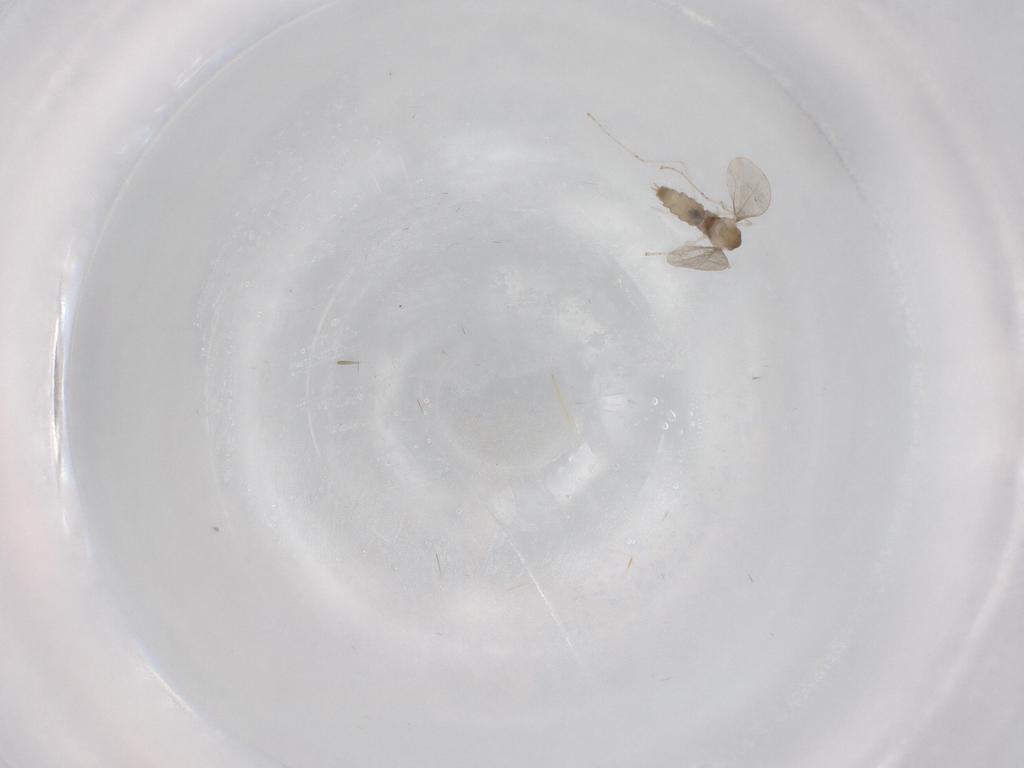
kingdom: Animalia
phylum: Arthropoda
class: Insecta
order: Diptera
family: Cecidomyiidae
